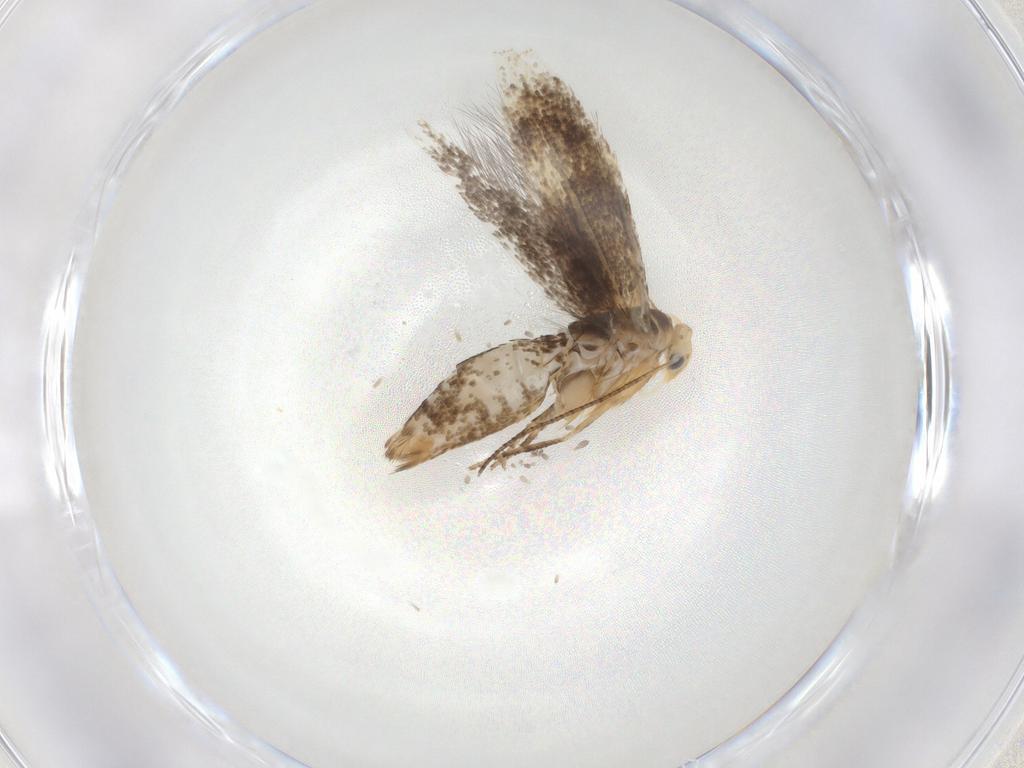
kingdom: Animalia
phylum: Arthropoda
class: Insecta
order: Lepidoptera
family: Bucculatricidae
